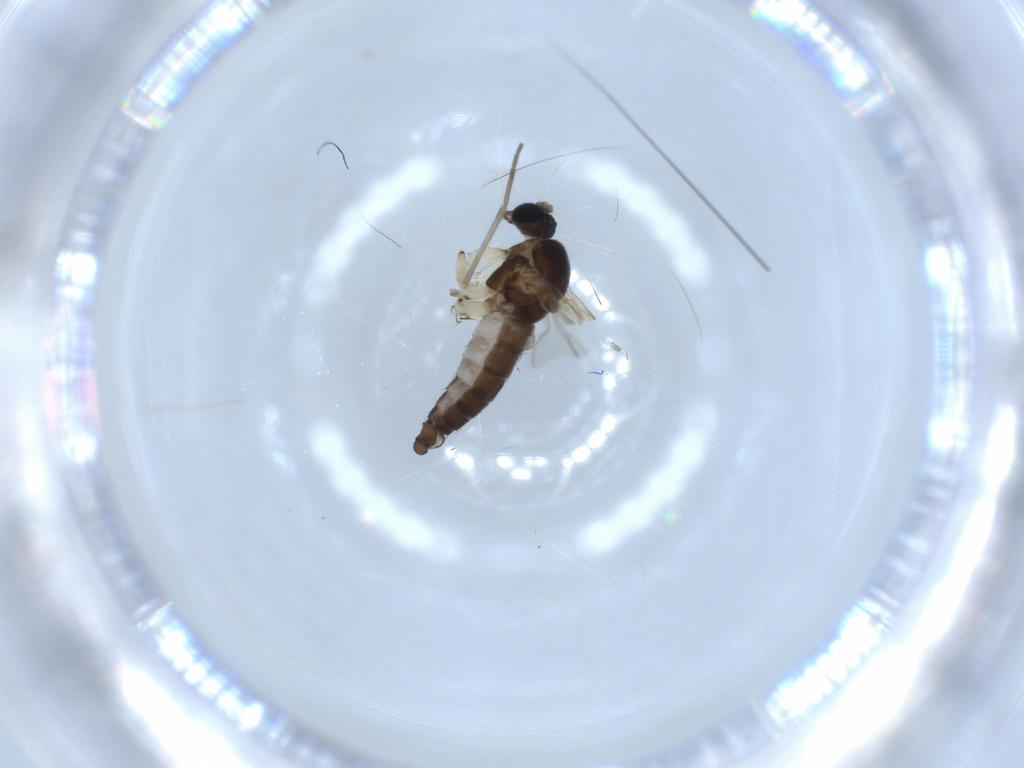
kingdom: Animalia
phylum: Arthropoda
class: Insecta
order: Diptera
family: Sciaridae
